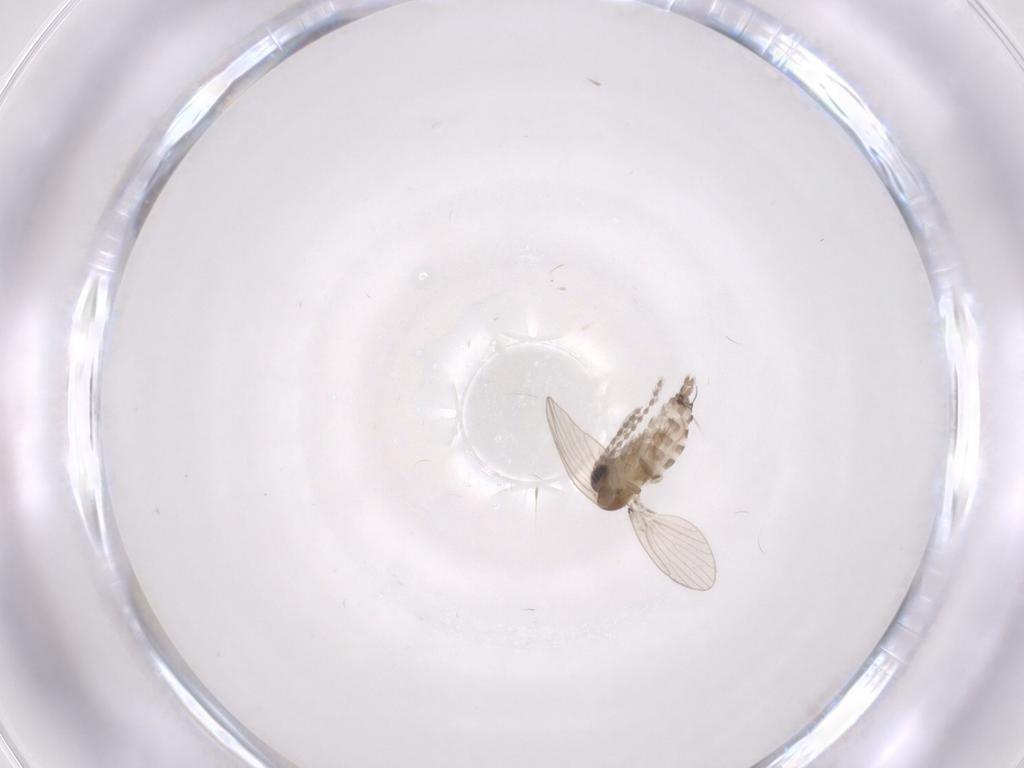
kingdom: Animalia
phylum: Arthropoda
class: Insecta
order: Diptera
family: Psychodidae
